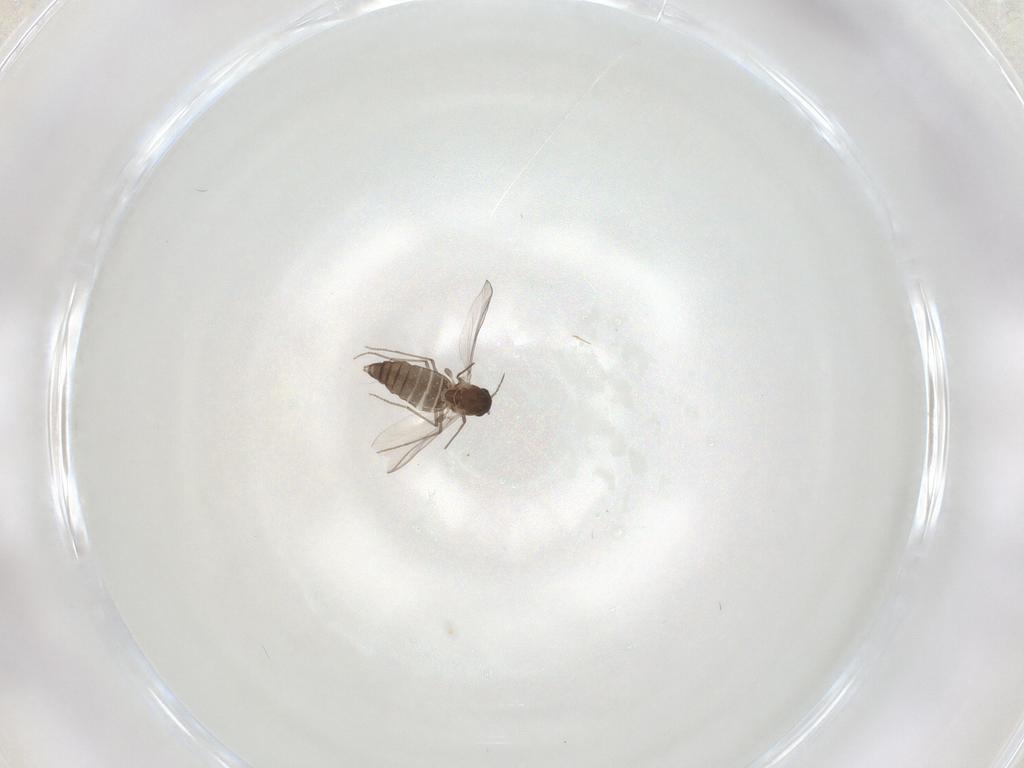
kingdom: Animalia
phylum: Arthropoda
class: Insecta
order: Diptera
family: Chironomidae
